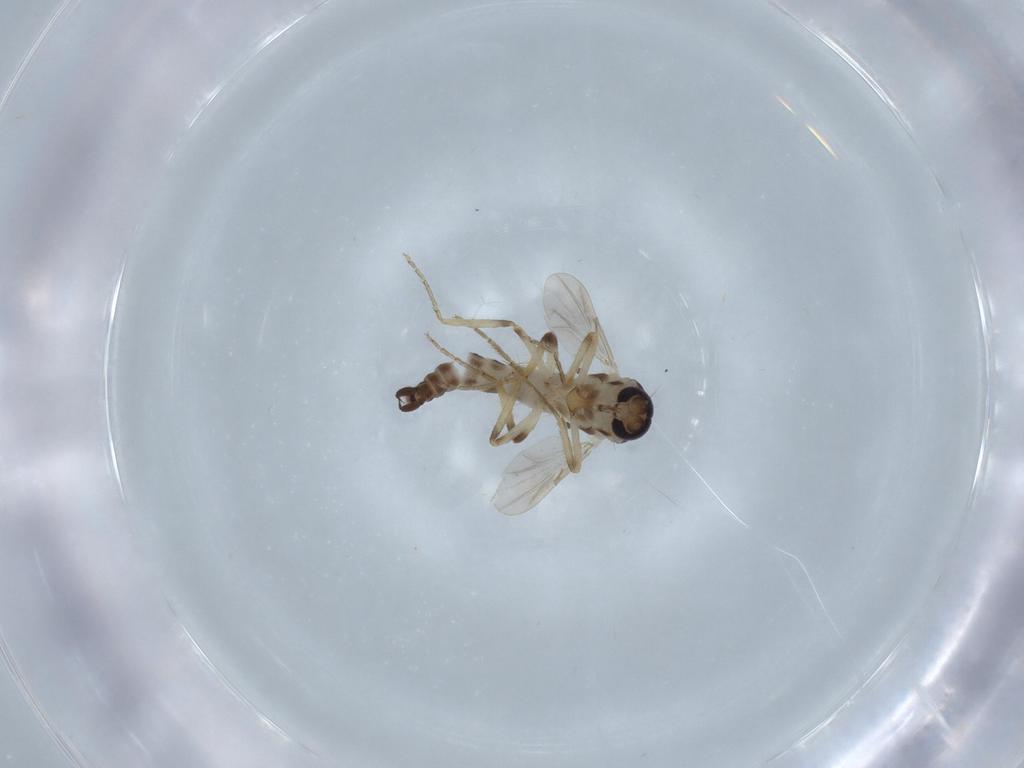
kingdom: Animalia
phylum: Arthropoda
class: Insecta
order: Diptera
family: Ceratopogonidae
